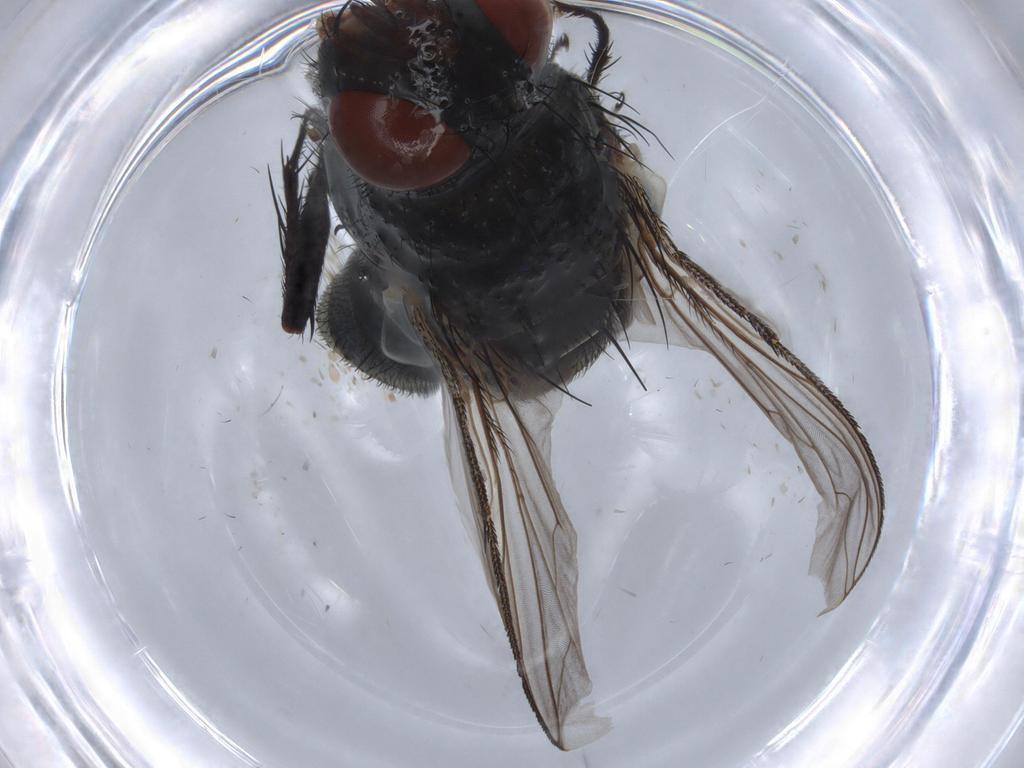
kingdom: Animalia
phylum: Arthropoda
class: Insecta
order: Diptera
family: Sarcophagidae
